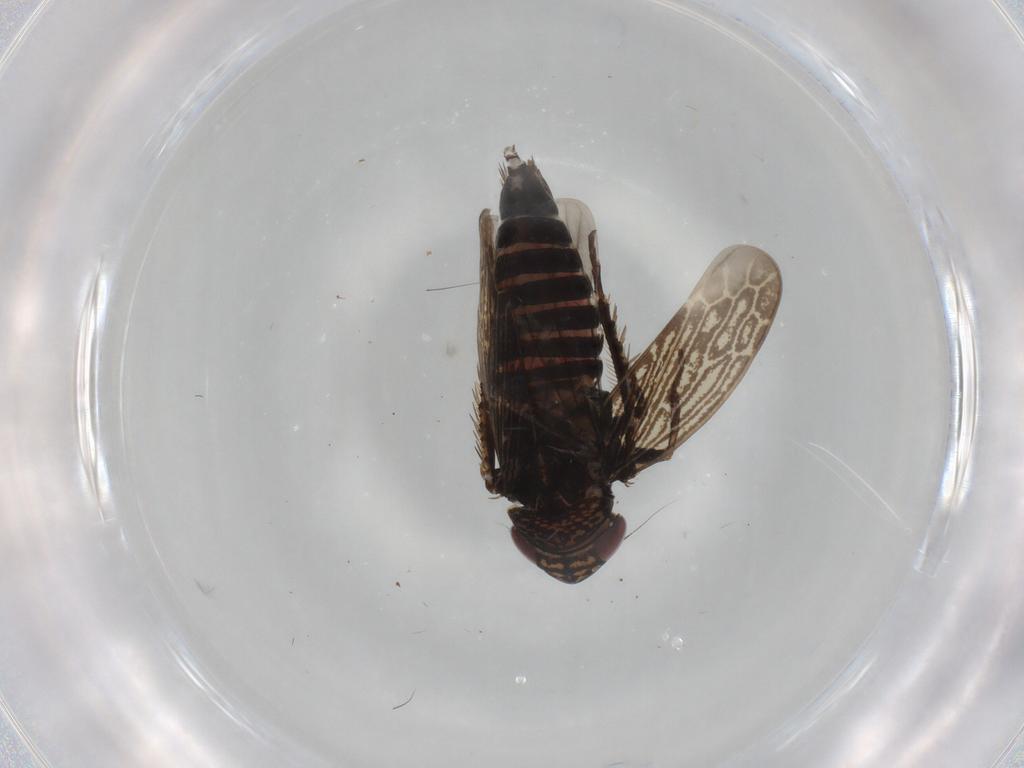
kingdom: Animalia
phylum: Arthropoda
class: Insecta
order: Hemiptera
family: Cicadellidae
